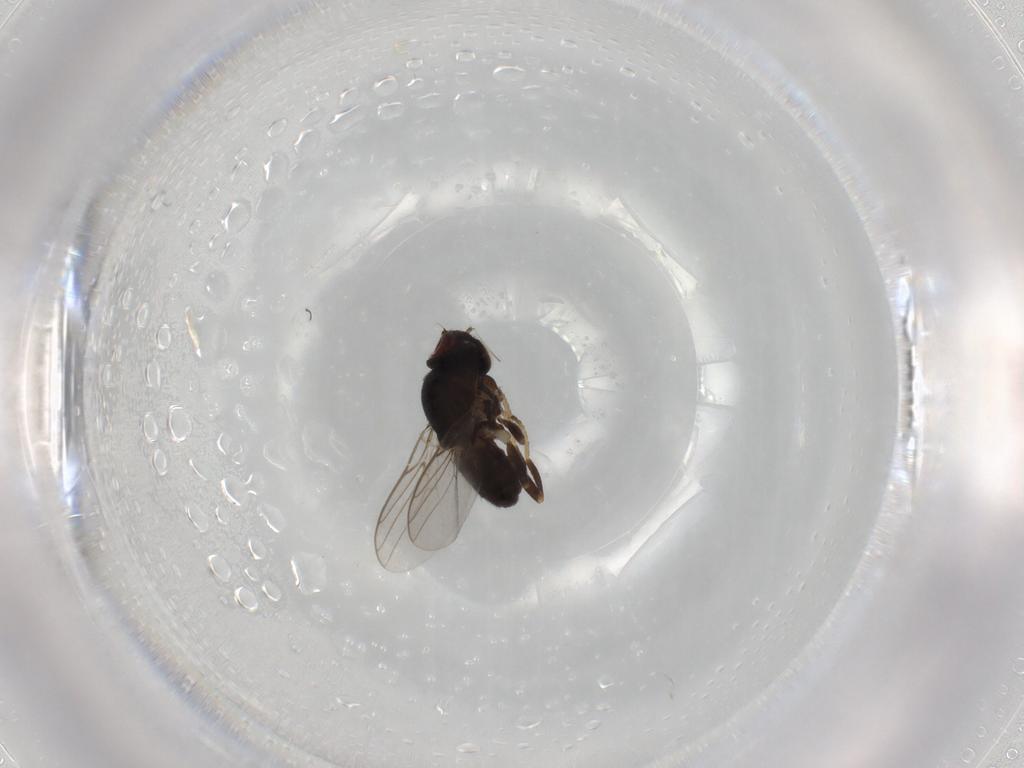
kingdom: Animalia
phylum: Arthropoda
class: Insecta
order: Diptera
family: Chloropidae
